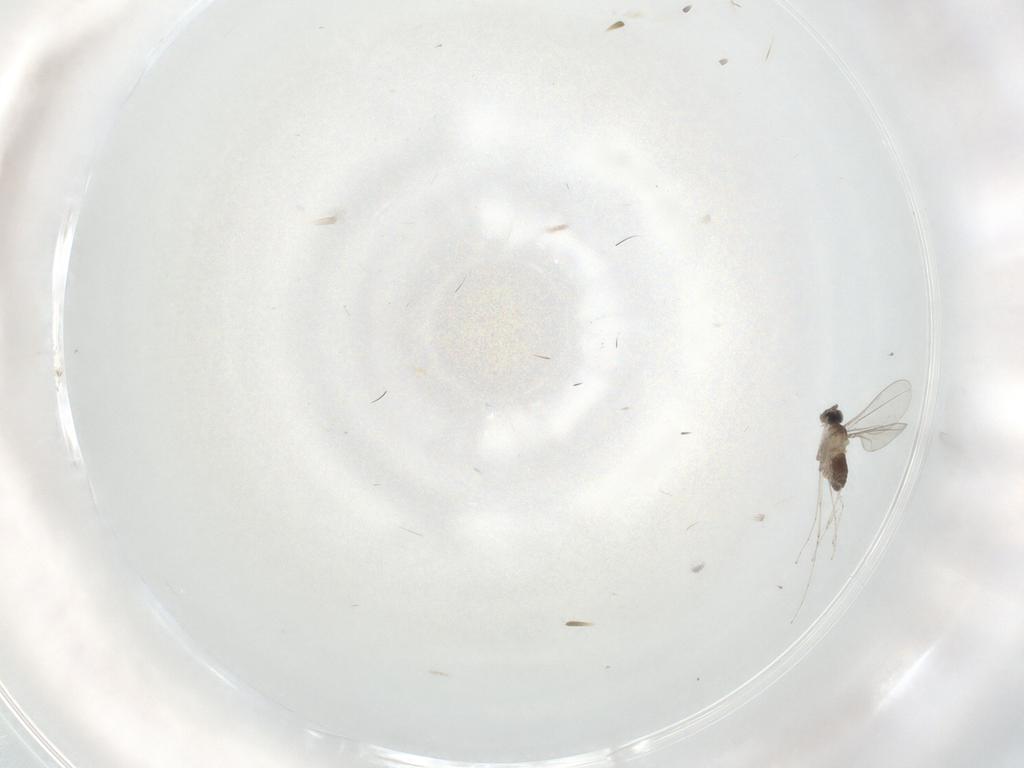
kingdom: Animalia
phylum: Arthropoda
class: Insecta
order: Diptera
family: Cecidomyiidae
